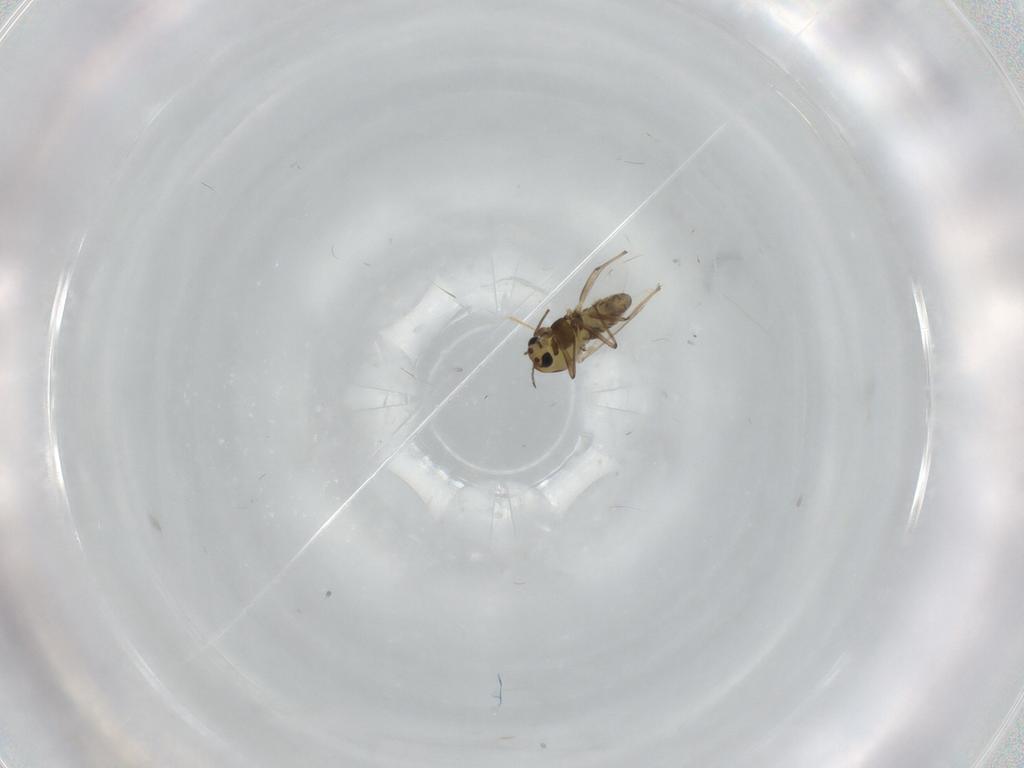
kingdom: Animalia
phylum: Arthropoda
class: Insecta
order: Diptera
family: Chironomidae
